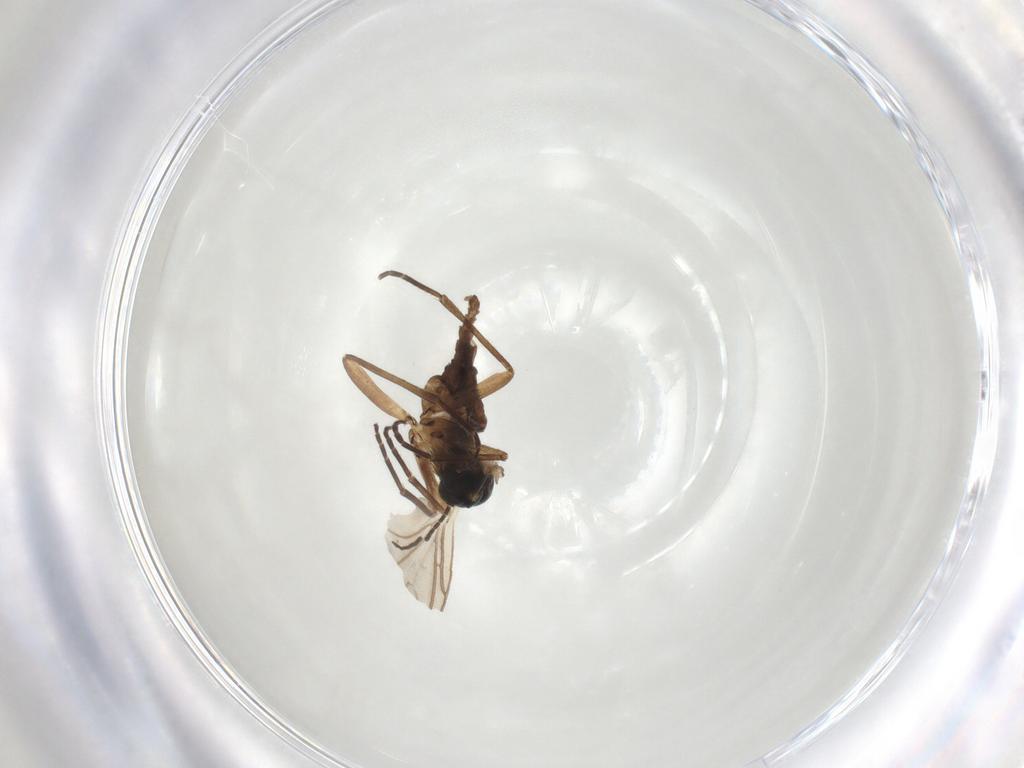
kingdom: Animalia
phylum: Arthropoda
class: Insecta
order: Diptera
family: Sciaridae
